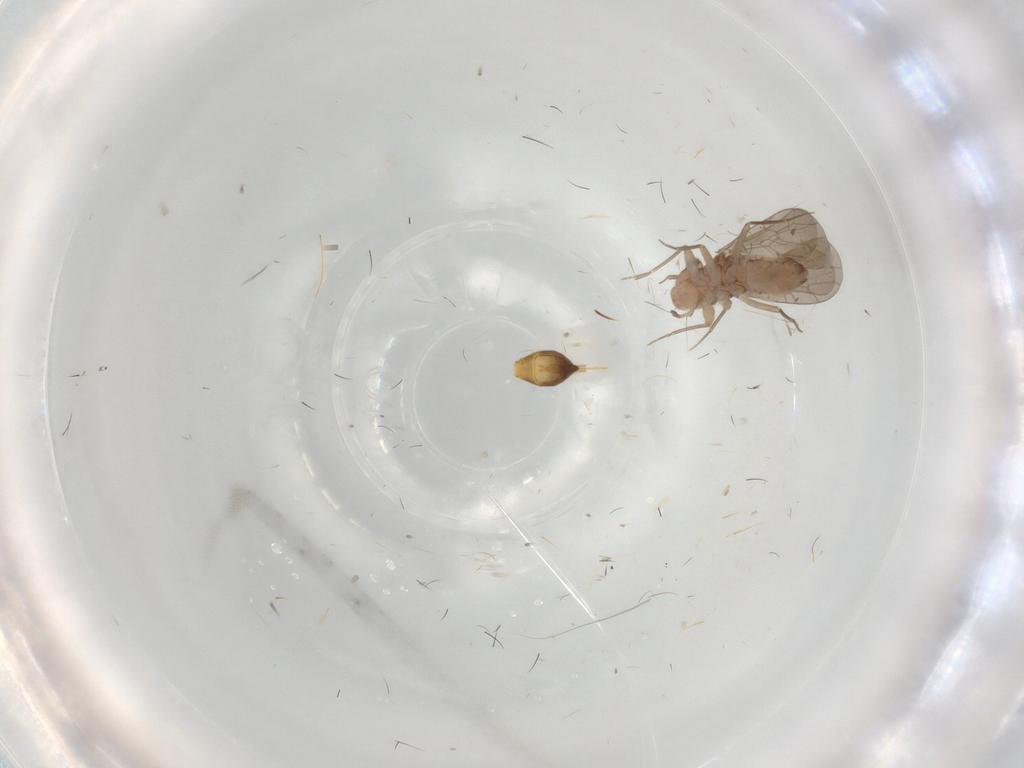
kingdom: Animalia
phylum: Arthropoda
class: Insecta
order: Psocodea
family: Lepidopsocidae
